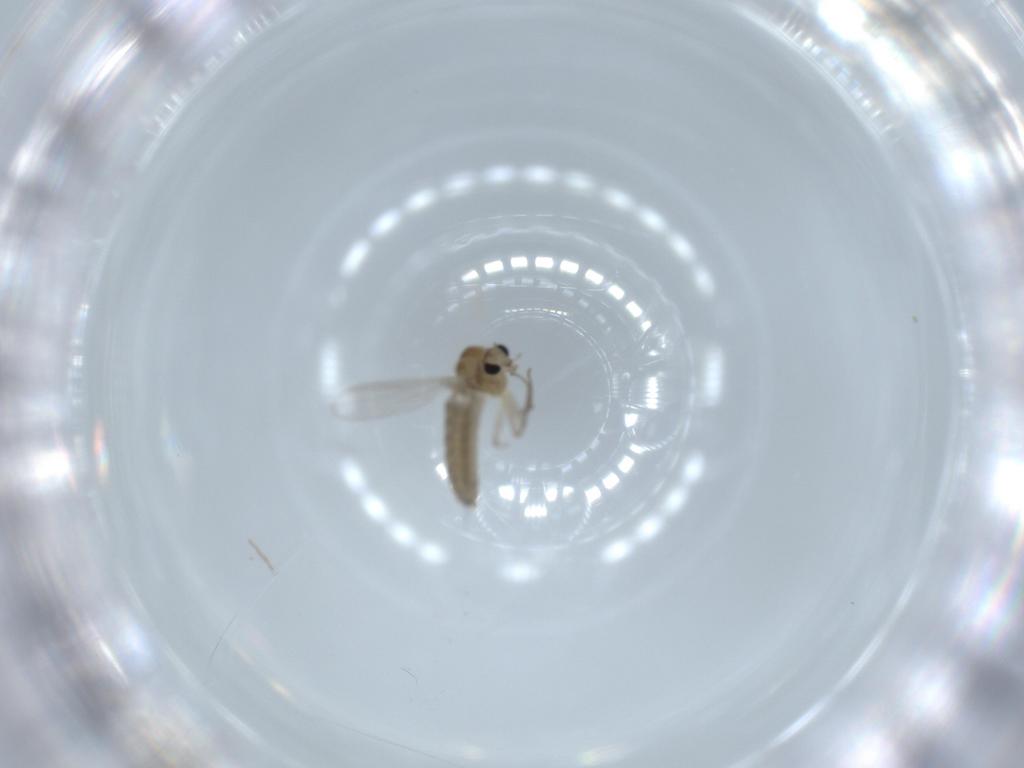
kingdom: Animalia
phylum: Arthropoda
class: Insecta
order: Diptera
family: Chironomidae
